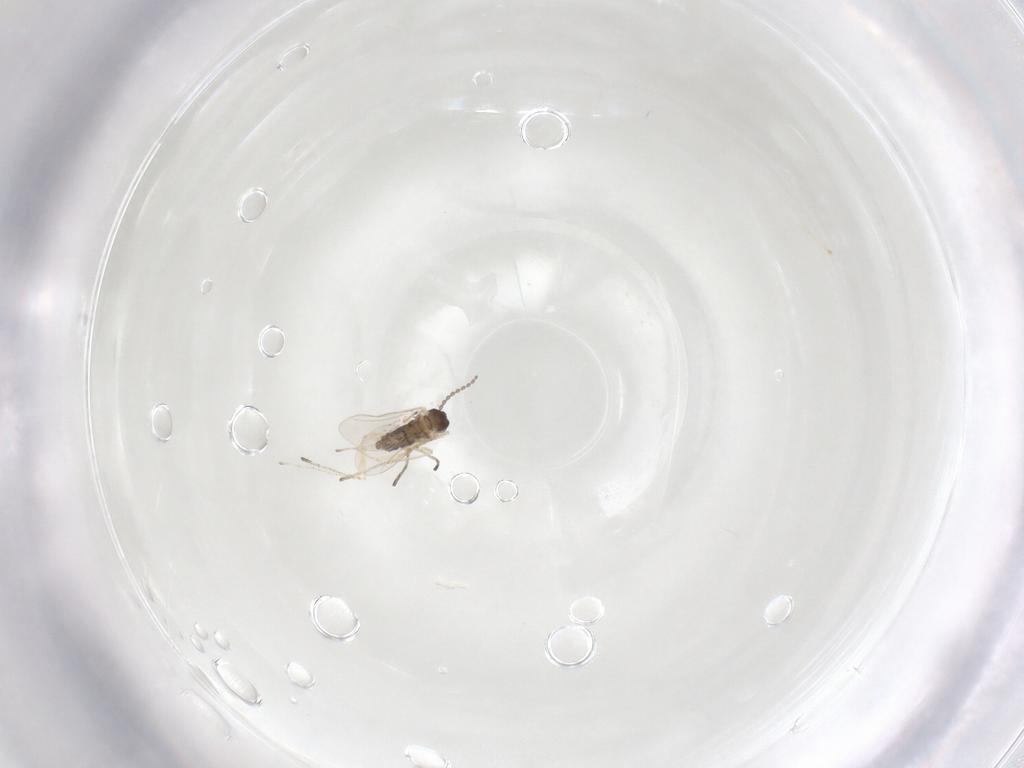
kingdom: Animalia
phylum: Arthropoda
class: Insecta
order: Diptera
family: Cecidomyiidae
